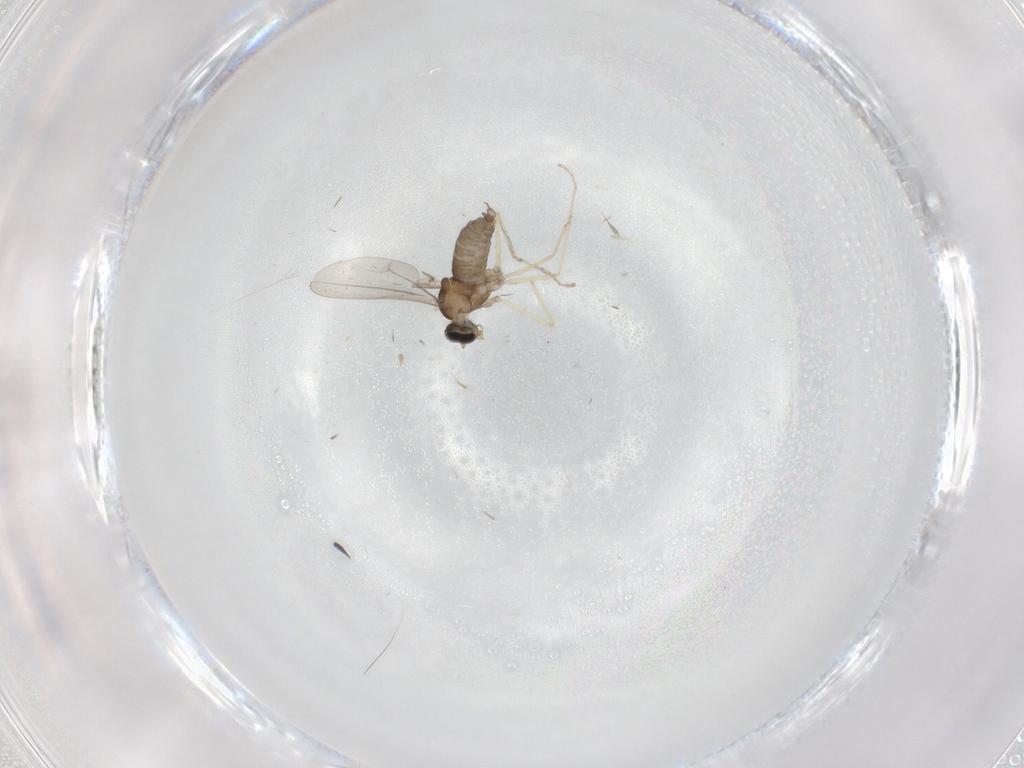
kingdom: Animalia
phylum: Arthropoda
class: Insecta
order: Diptera
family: Cecidomyiidae
